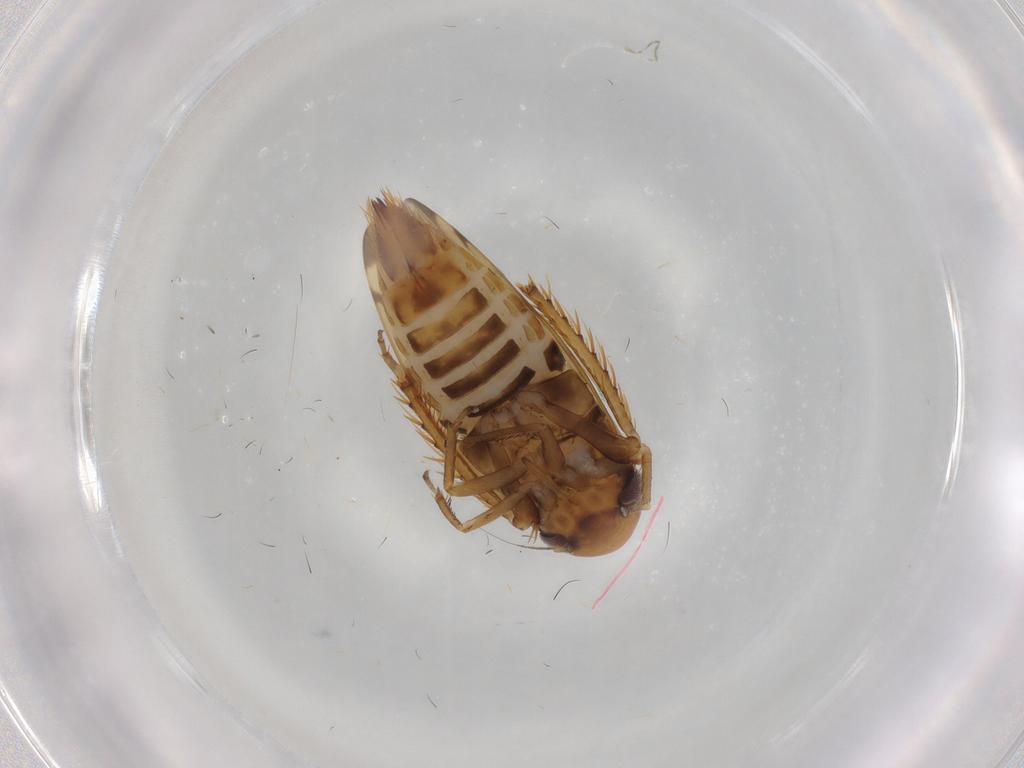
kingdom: Animalia
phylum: Arthropoda
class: Insecta
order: Hemiptera
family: Cicadellidae
